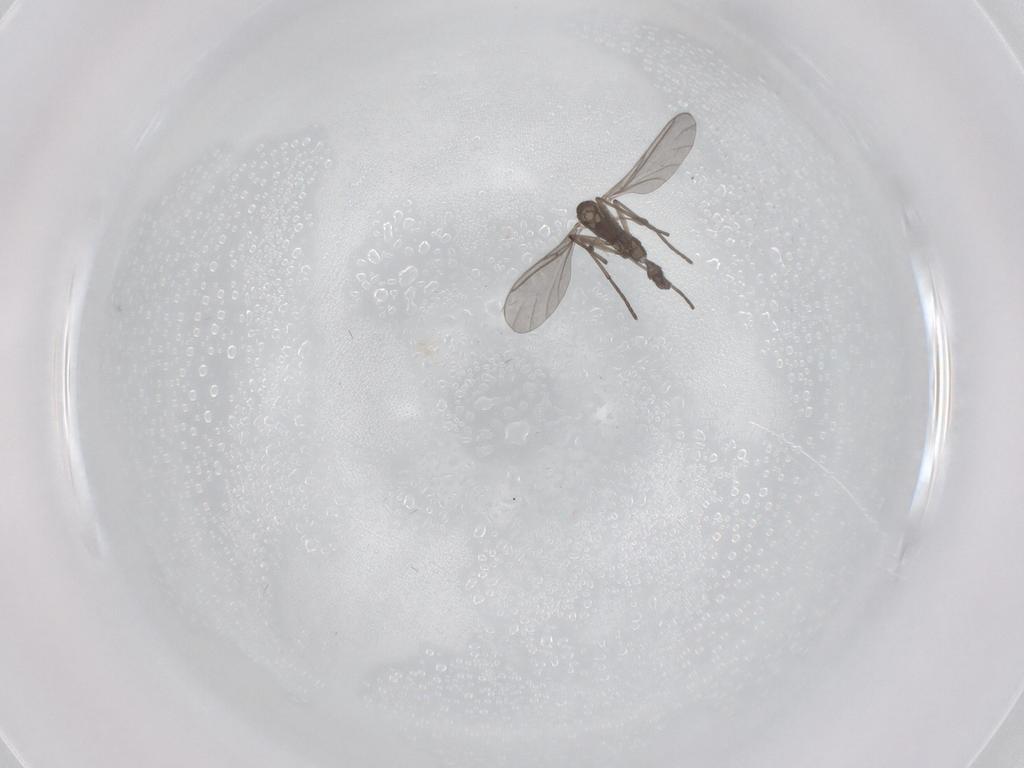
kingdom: Animalia
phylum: Arthropoda
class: Insecta
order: Diptera
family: Sciaridae
